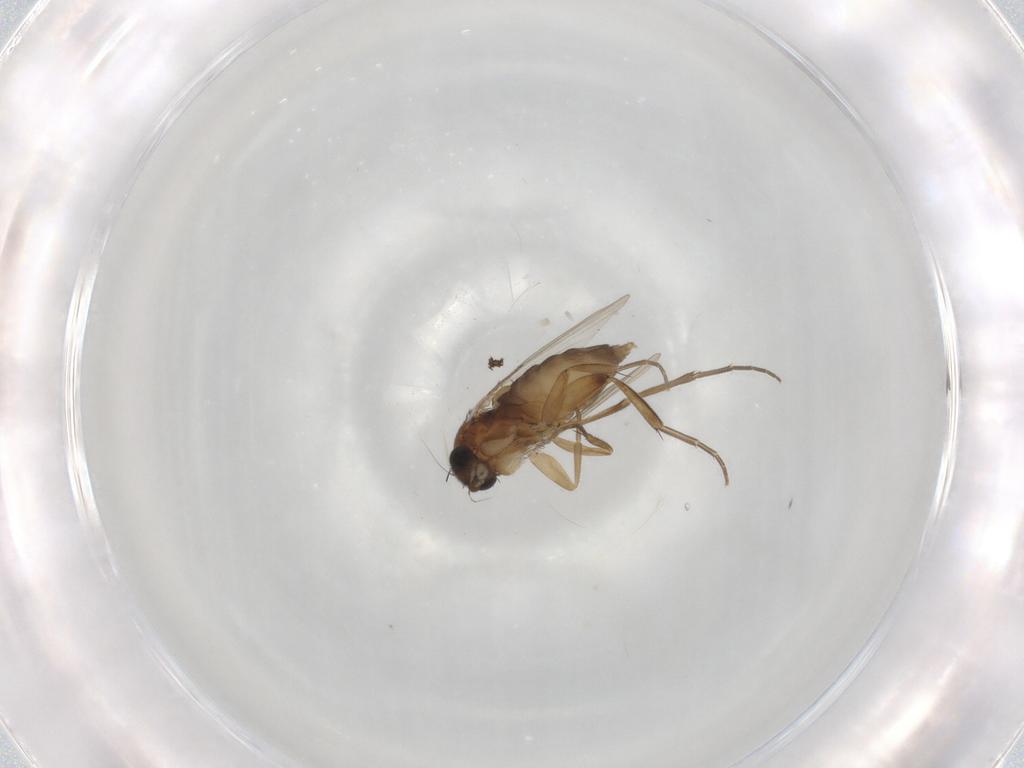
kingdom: Animalia
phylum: Arthropoda
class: Insecta
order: Diptera
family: Phoridae
